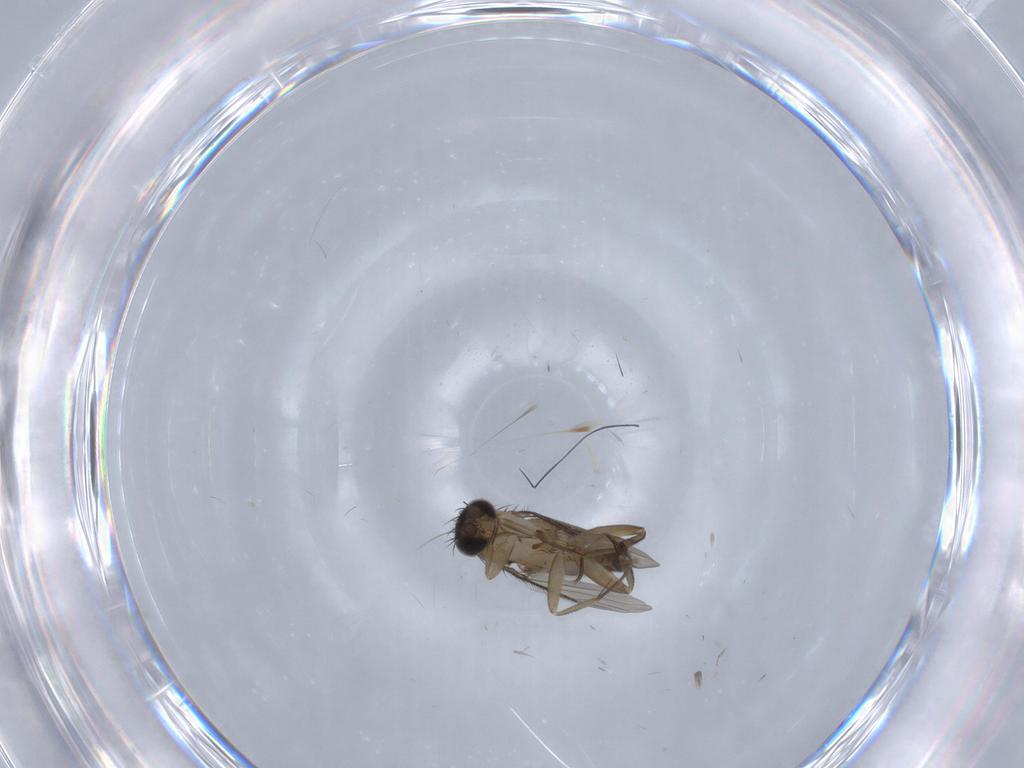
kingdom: Animalia
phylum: Arthropoda
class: Insecta
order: Diptera
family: Phoridae
